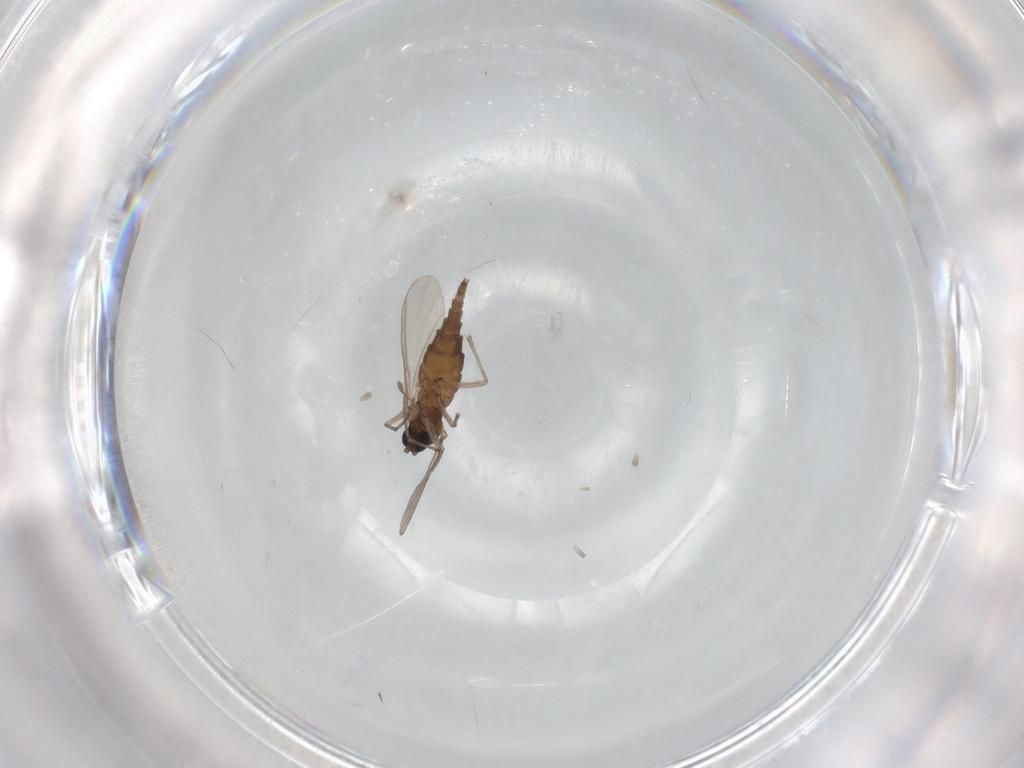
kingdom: Animalia
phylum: Arthropoda
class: Insecta
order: Diptera
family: Sciaridae
